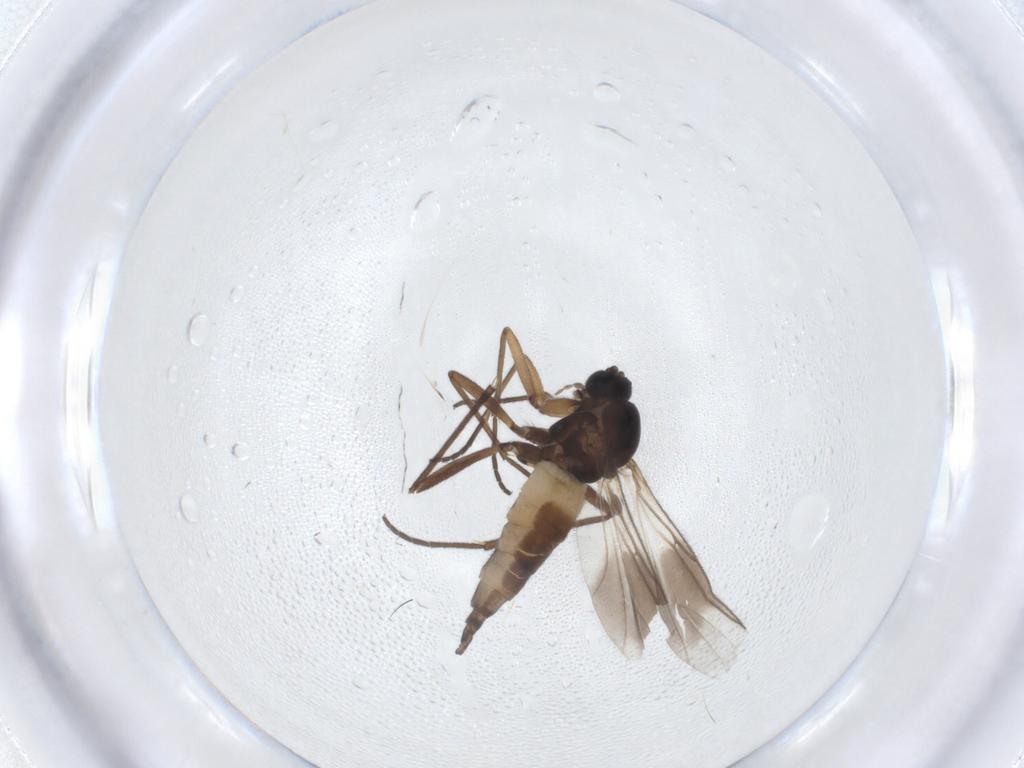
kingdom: Animalia
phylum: Arthropoda
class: Insecta
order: Diptera
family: Sciaridae
